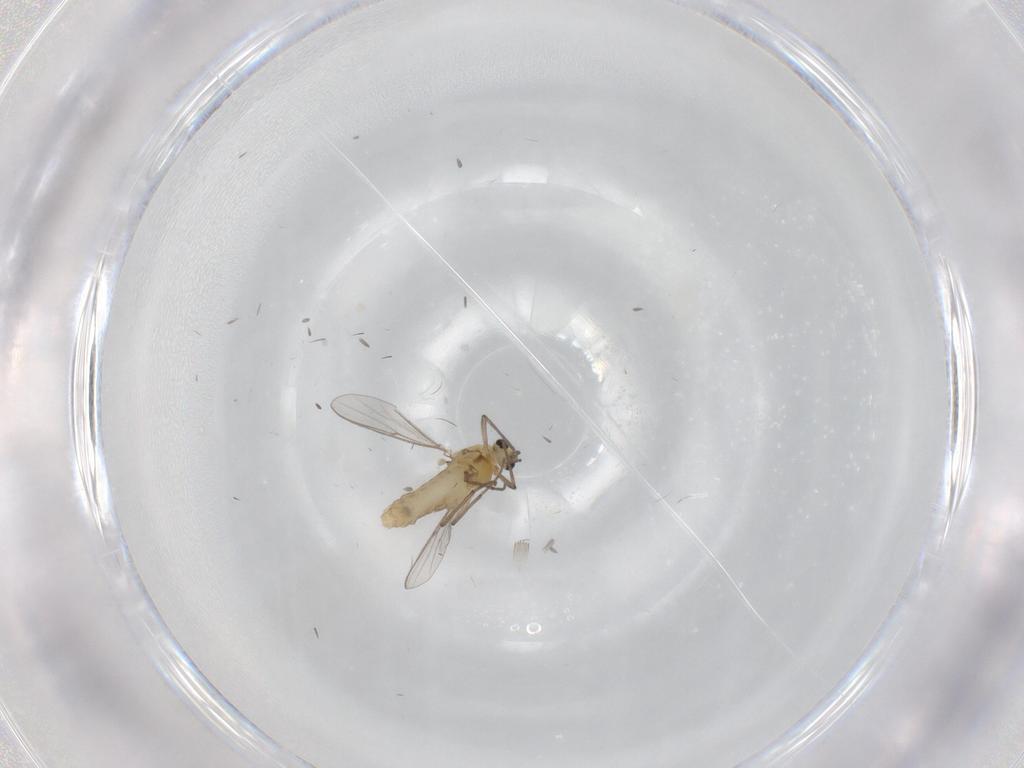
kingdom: Animalia
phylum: Arthropoda
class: Insecta
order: Diptera
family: Chironomidae
